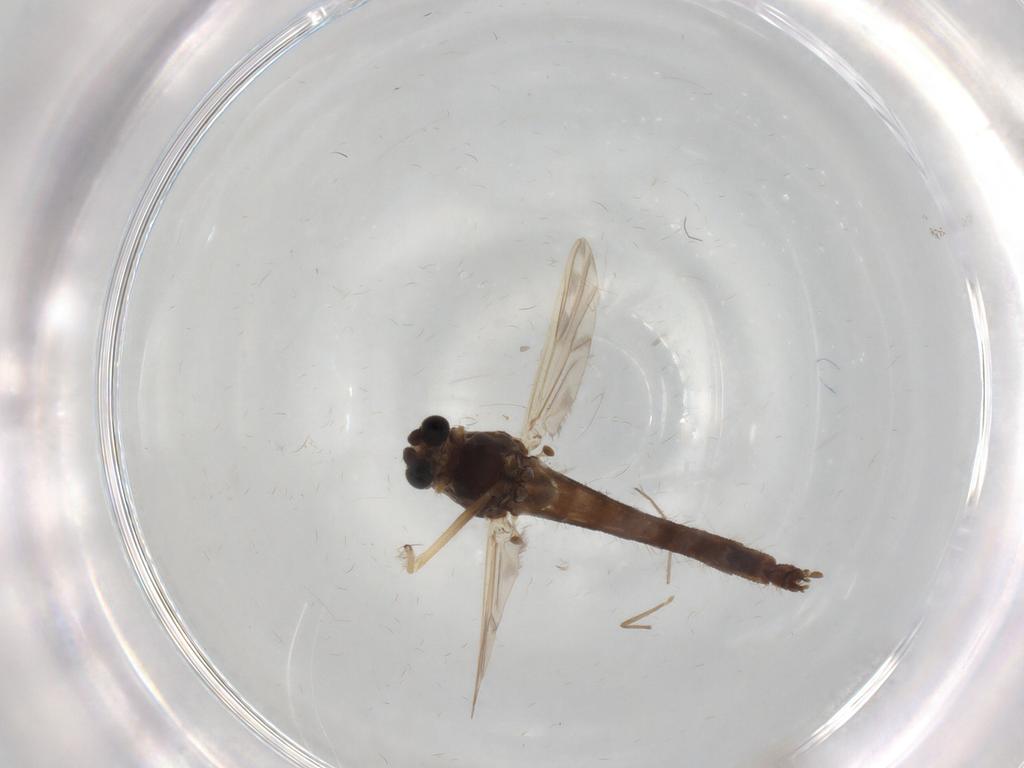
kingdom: Animalia
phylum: Arthropoda
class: Insecta
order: Diptera
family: Chironomidae
